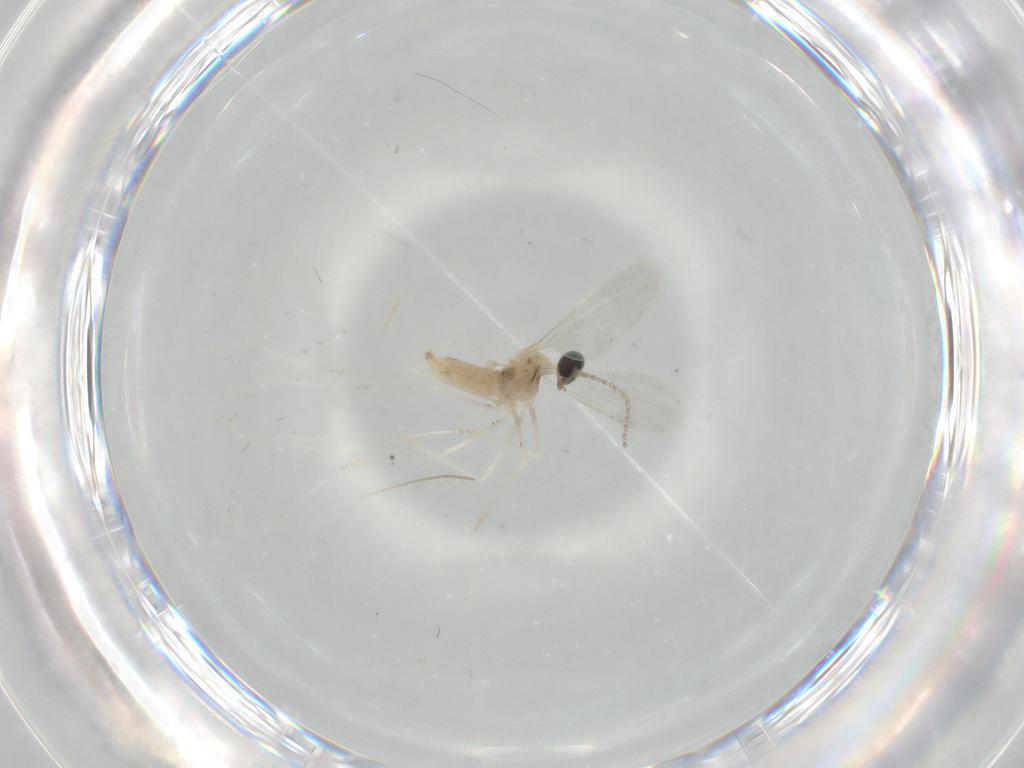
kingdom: Animalia
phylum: Arthropoda
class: Insecta
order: Diptera
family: Cecidomyiidae
